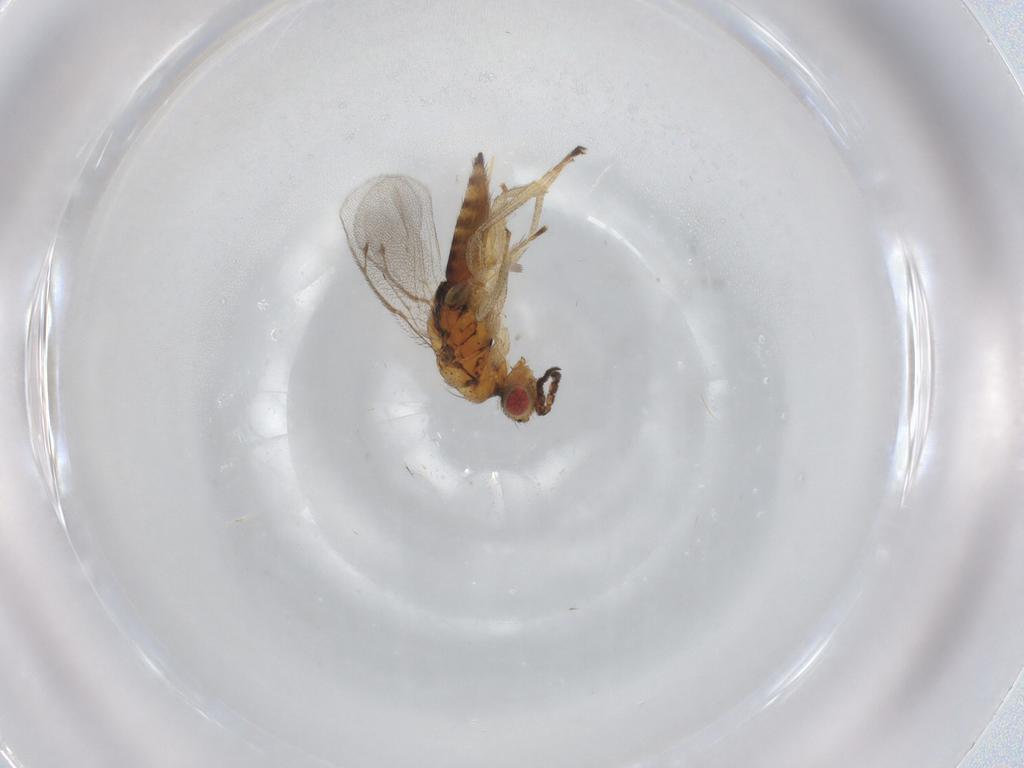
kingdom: Animalia
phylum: Arthropoda
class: Insecta
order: Hymenoptera
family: Eulophidae
